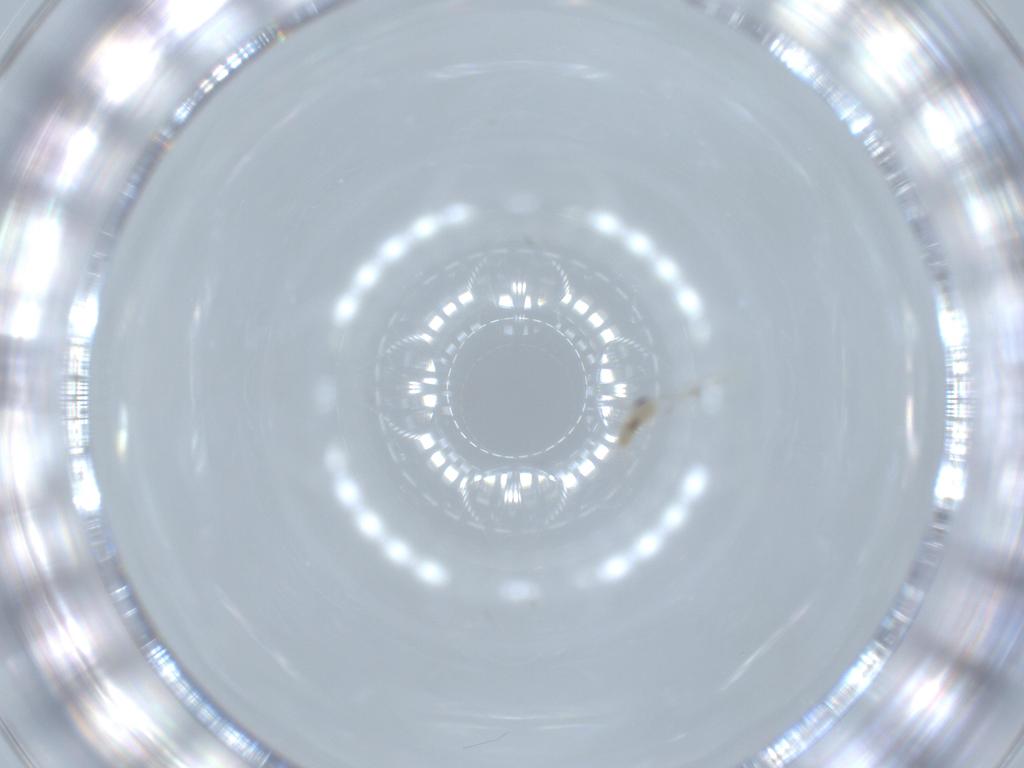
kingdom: Animalia
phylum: Arthropoda
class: Insecta
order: Diptera
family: Cecidomyiidae
